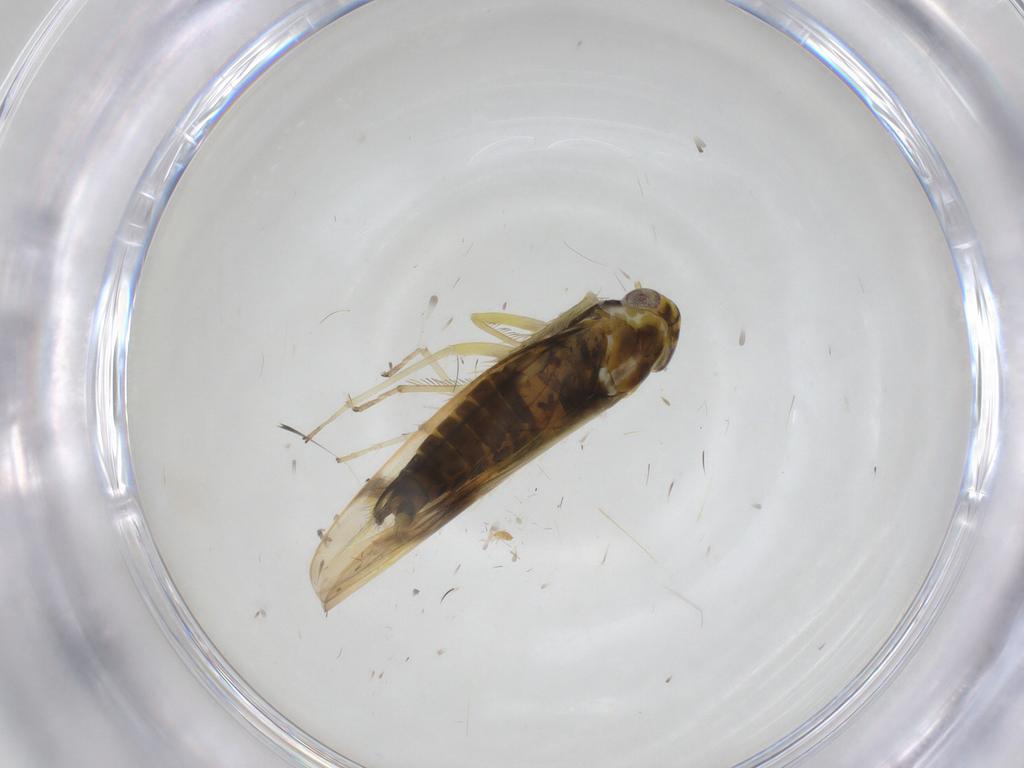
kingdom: Animalia
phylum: Arthropoda
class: Insecta
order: Hemiptera
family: Cicadellidae
